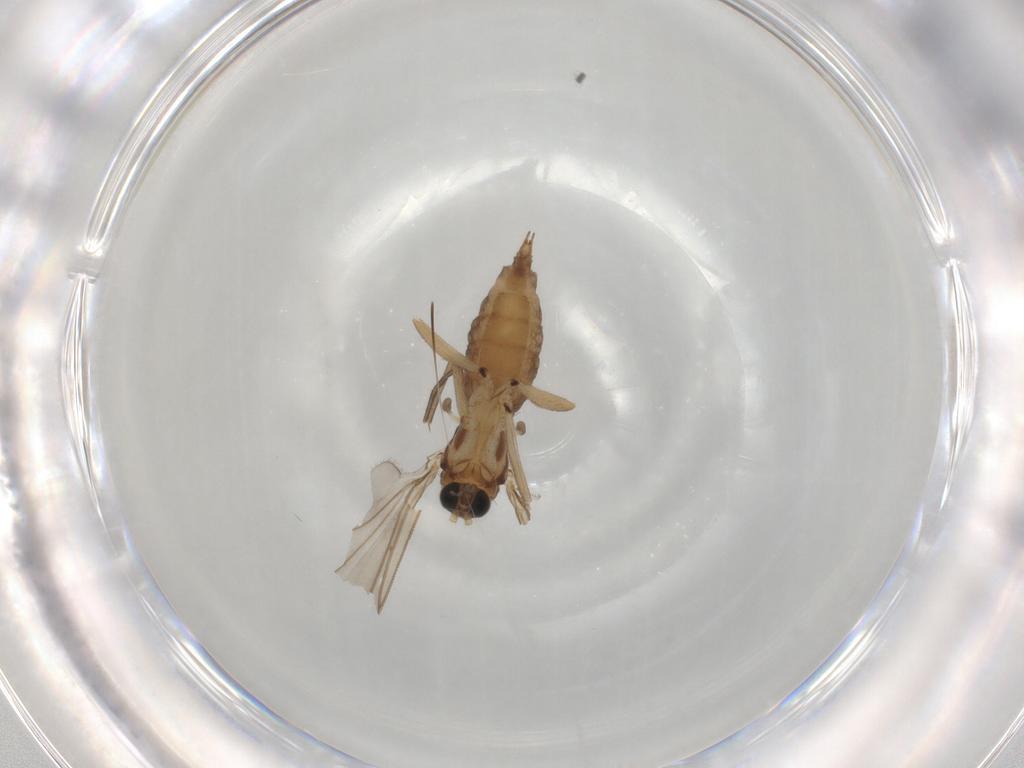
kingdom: Animalia
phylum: Arthropoda
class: Insecta
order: Diptera
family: Sciaridae
